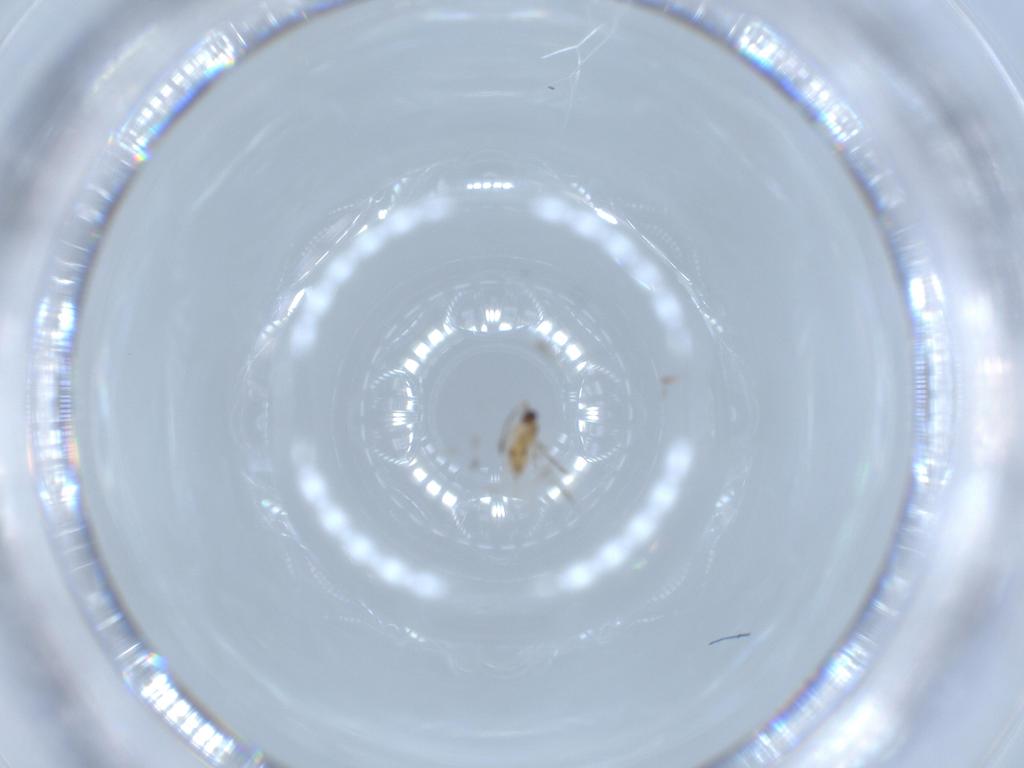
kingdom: Animalia
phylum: Arthropoda
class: Insecta
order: Hymenoptera
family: Mymaridae
